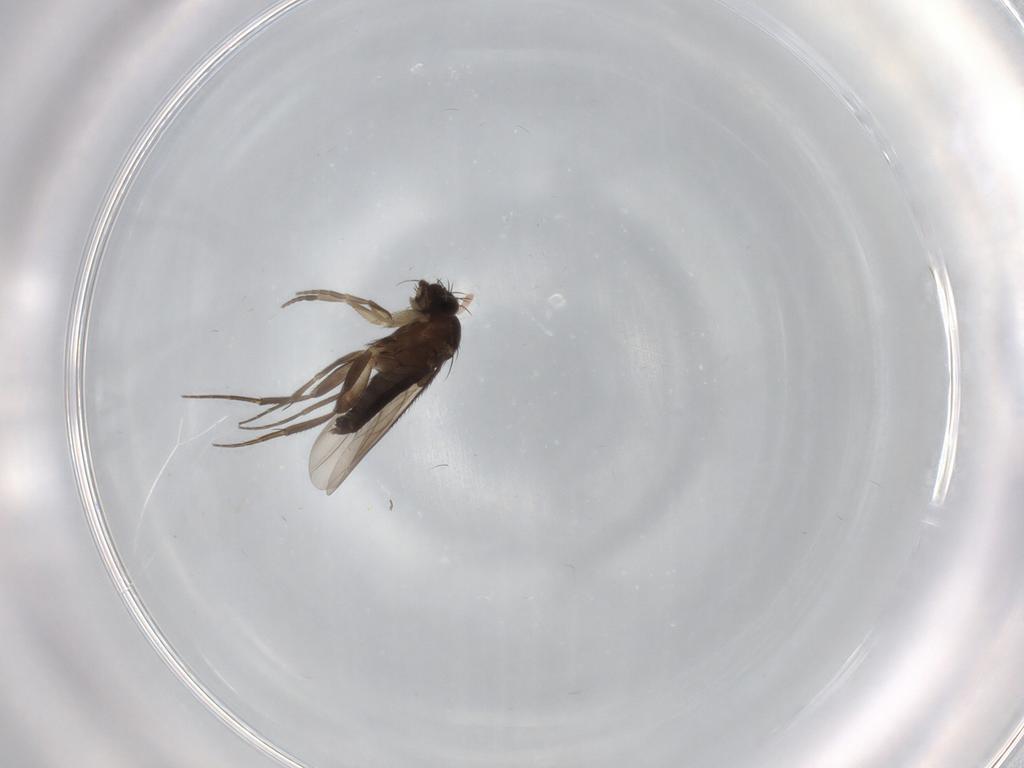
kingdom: Animalia
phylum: Arthropoda
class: Insecta
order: Diptera
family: Phoridae
